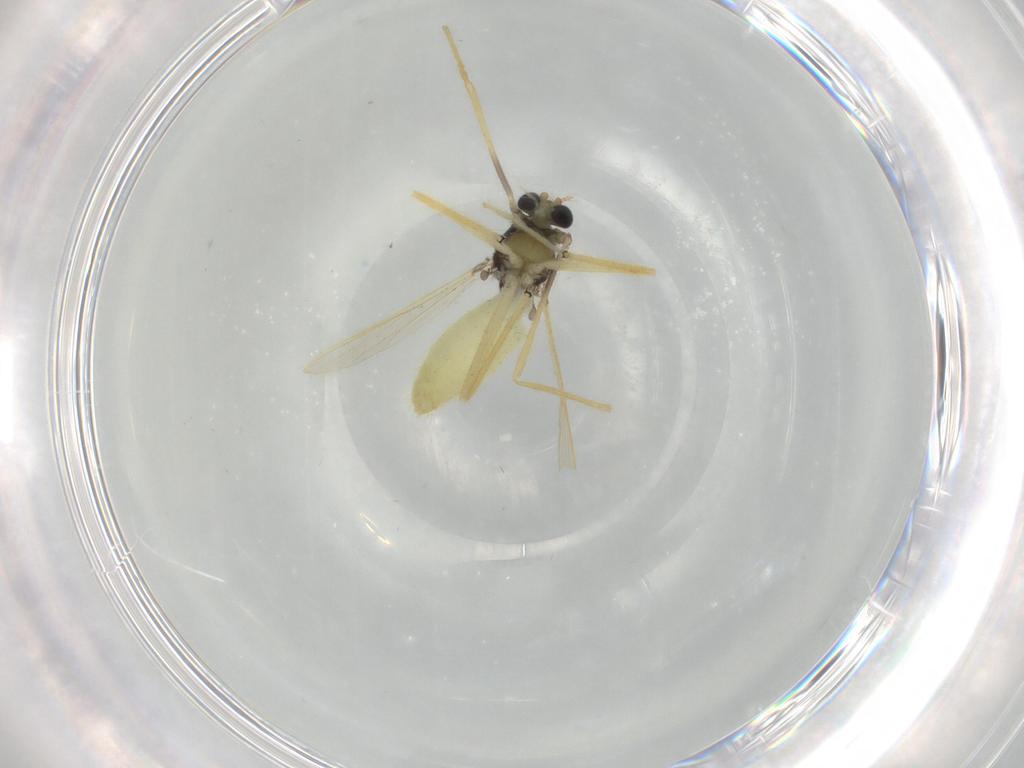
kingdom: Animalia
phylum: Arthropoda
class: Insecta
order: Diptera
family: Chironomidae
